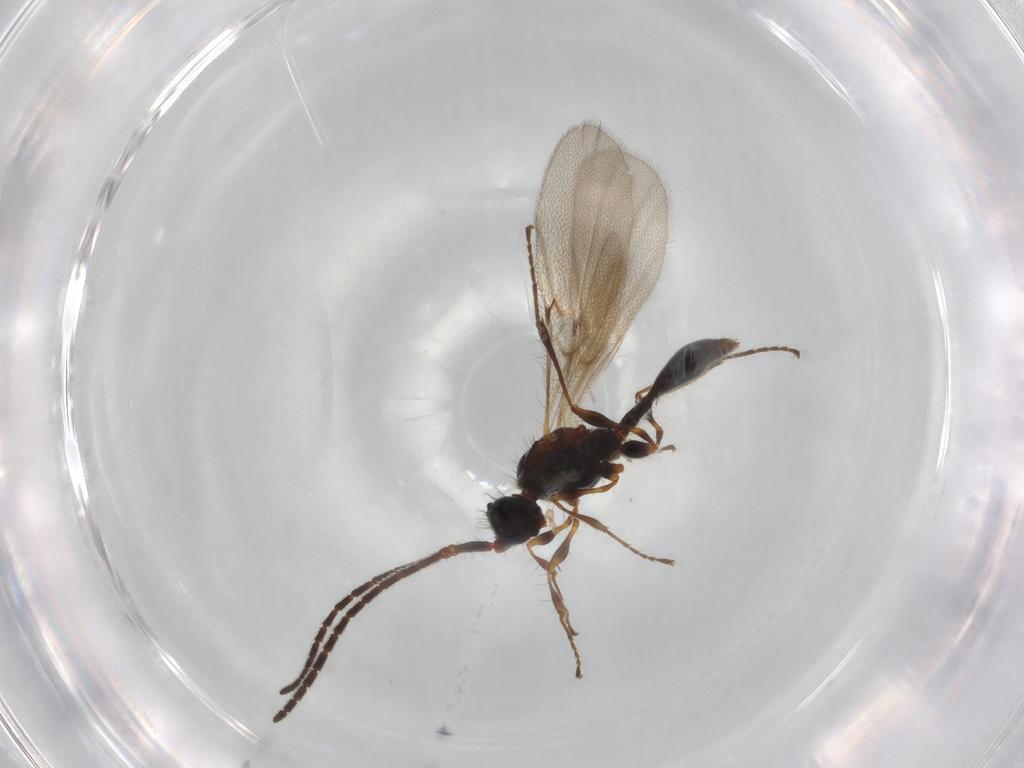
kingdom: Animalia
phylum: Arthropoda
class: Insecta
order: Hymenoptera
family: Diapriidae
